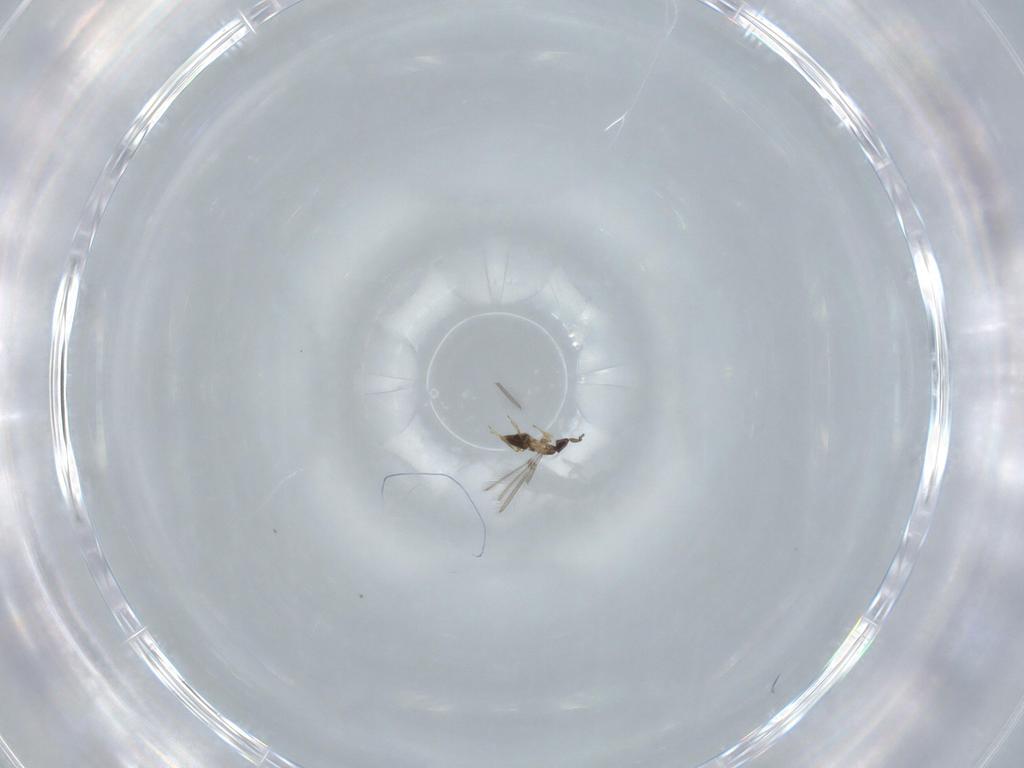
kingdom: Animalia
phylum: Arthropoda
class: Insecta
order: Hymenoptera
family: Mymaridae
